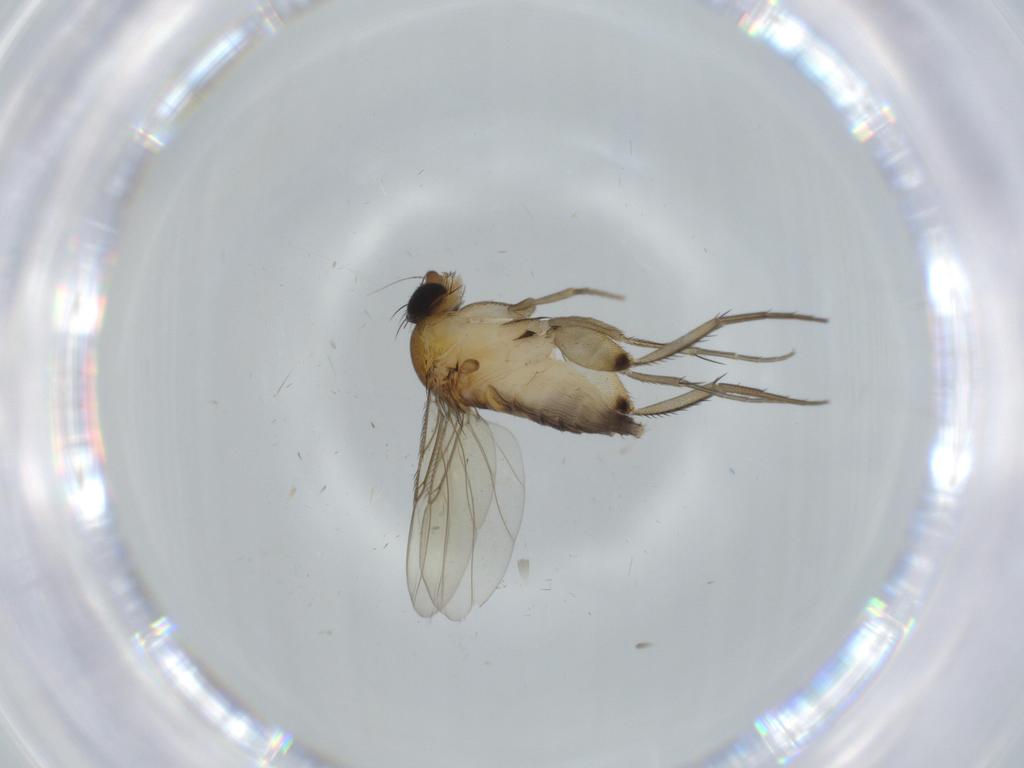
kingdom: Animalia
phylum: Arthropoda
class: Insecta
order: Diptera
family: Phoridae
